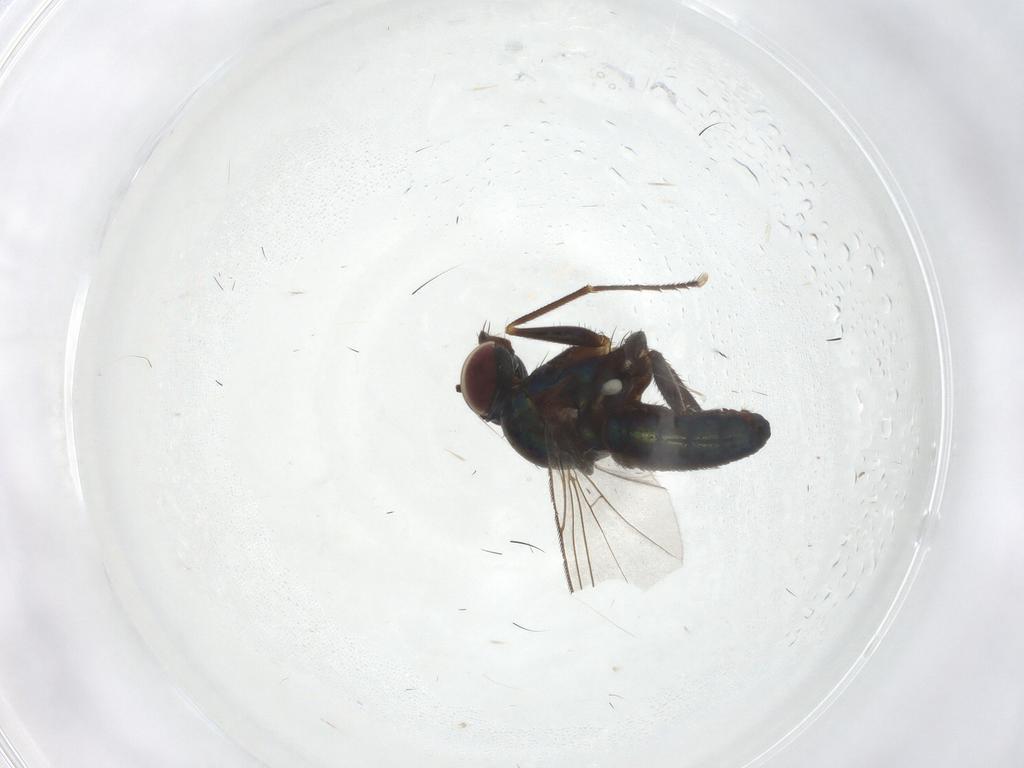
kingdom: Animalia
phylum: Arthropoda
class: Insecta
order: Diptera
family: Dolichopodidae
